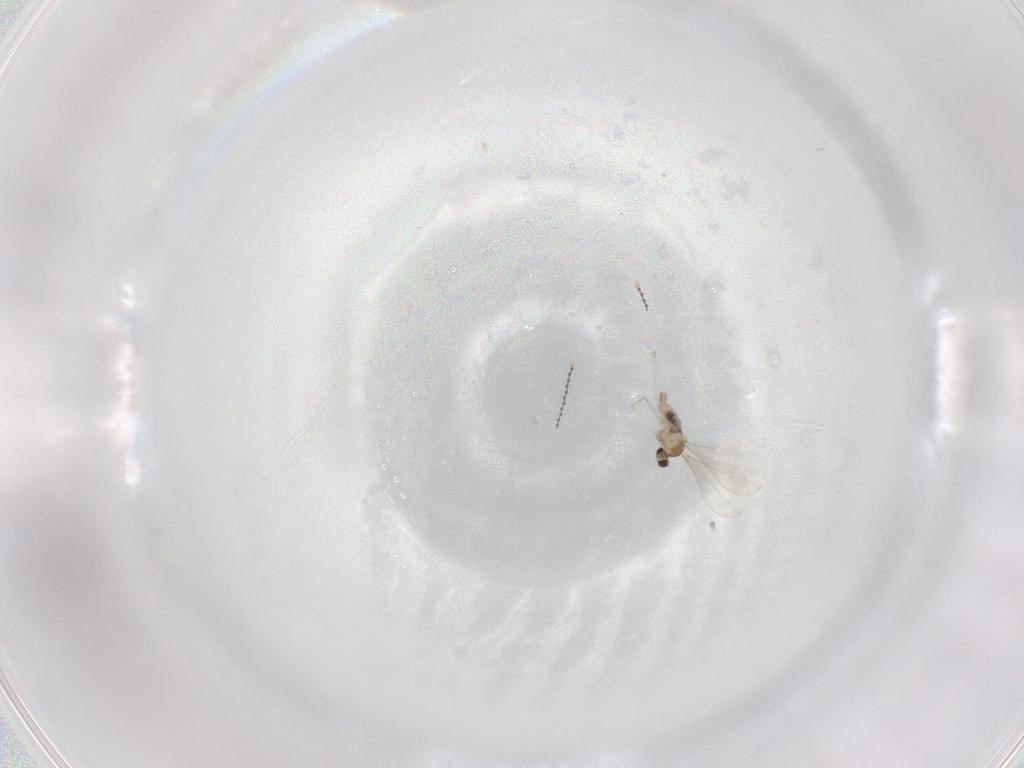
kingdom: Animalia
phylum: Arthropoda
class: Insecta
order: Diptera
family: Cecidomyiidae
